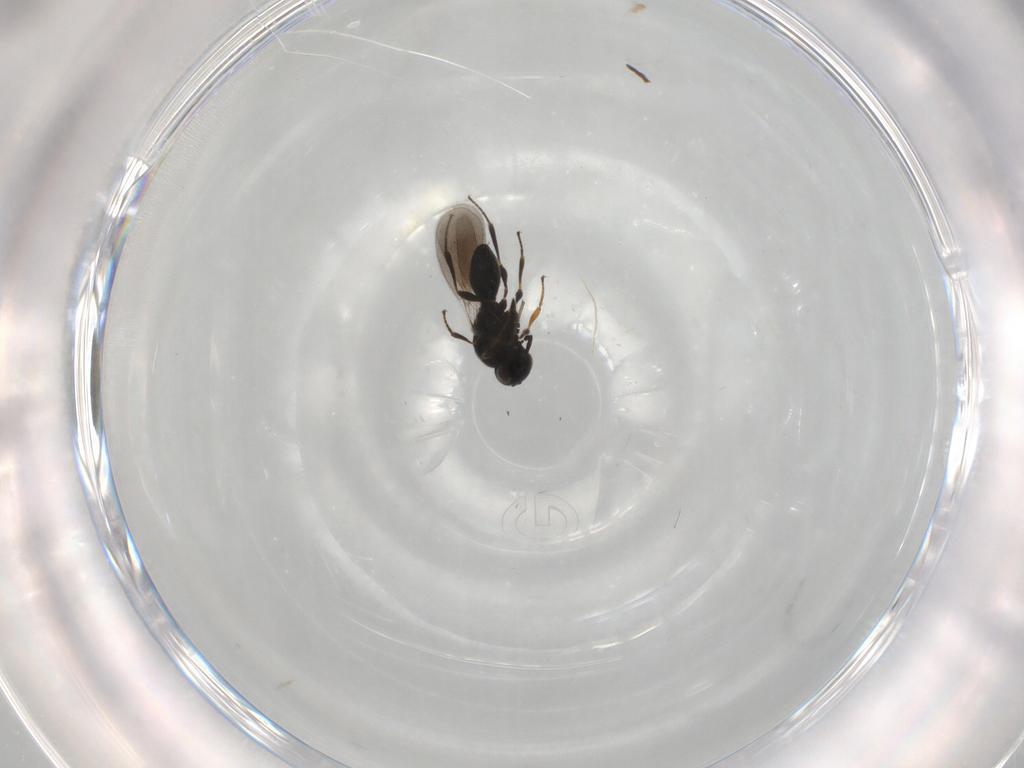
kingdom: Animalia
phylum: Arthropoda
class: Insecta
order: Hymenoptera
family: Platygastridae
